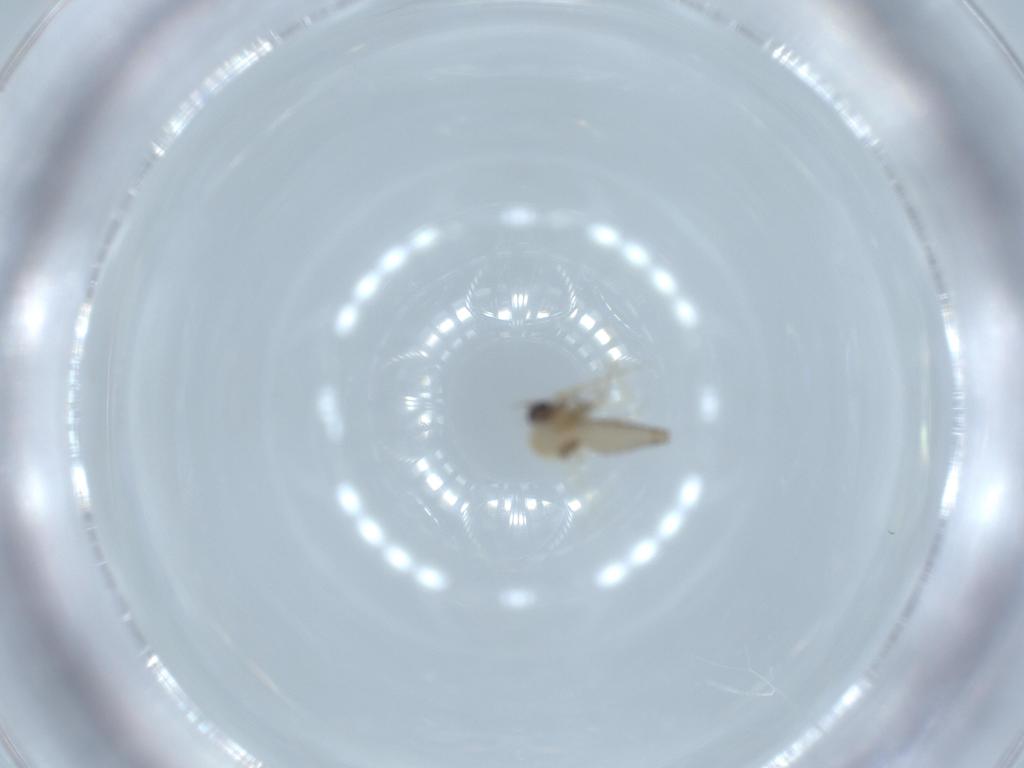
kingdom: Animalia
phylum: Arthropoda
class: Insecta
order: Diptera
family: Ceratopogonidae
